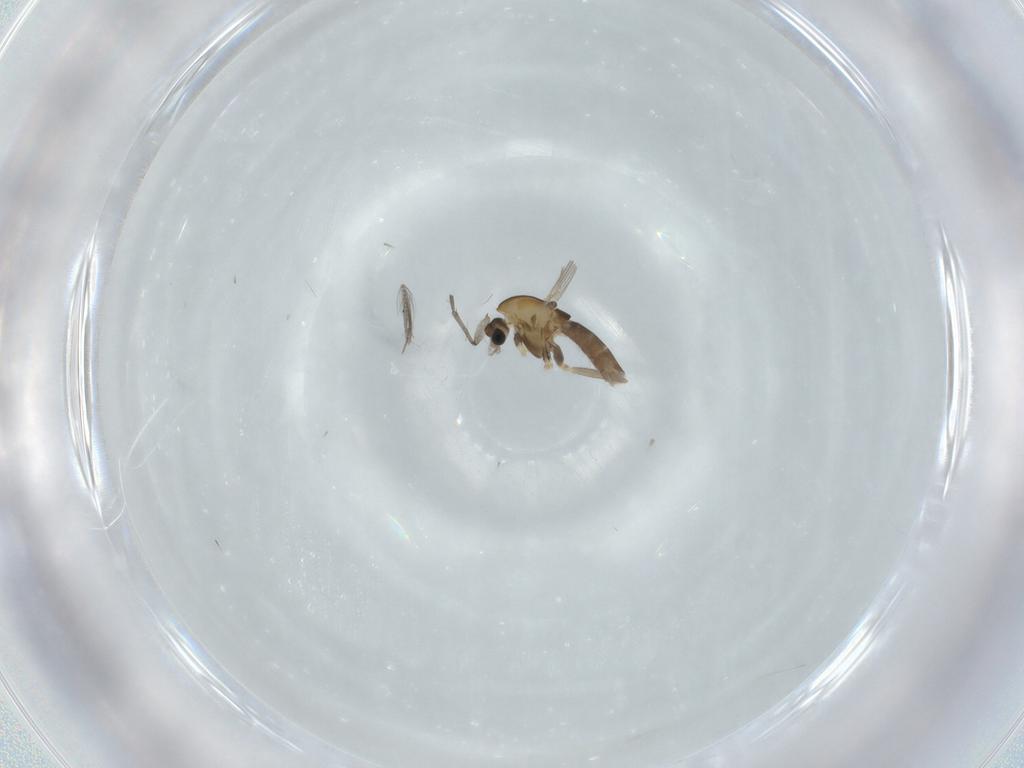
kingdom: Animalia
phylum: Arthropoda
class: Insecta
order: Diptera
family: Chironomidae
